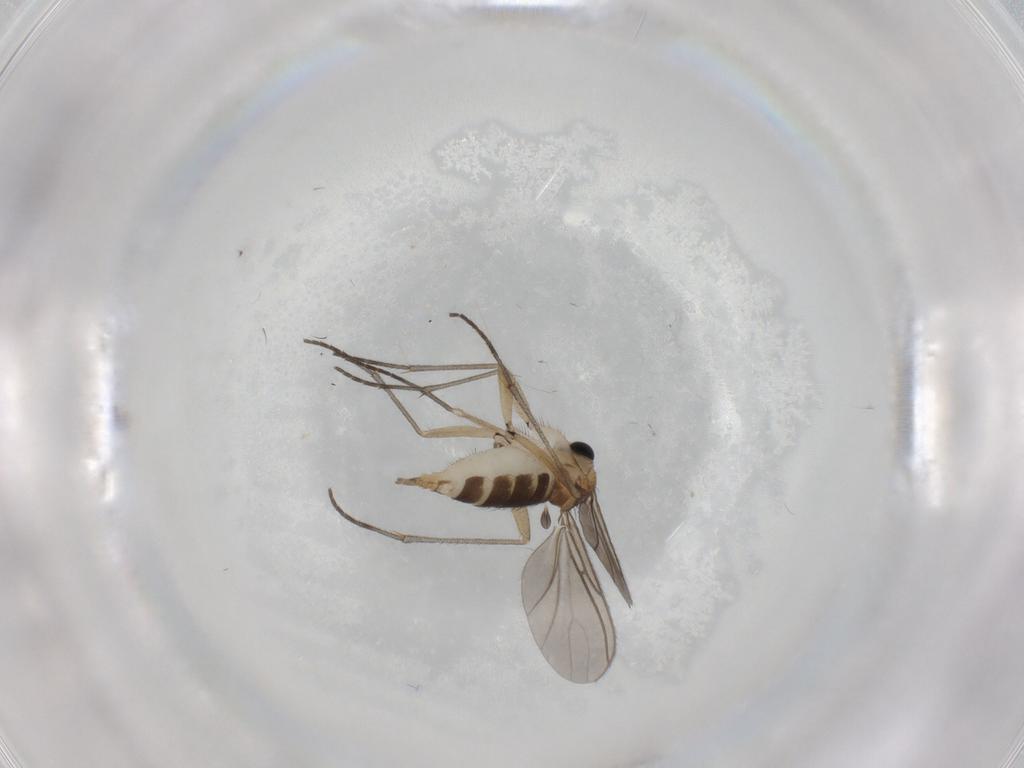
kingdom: Animalia
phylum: Arthropoda
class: Insecta
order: Diptera
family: Sciaridae
